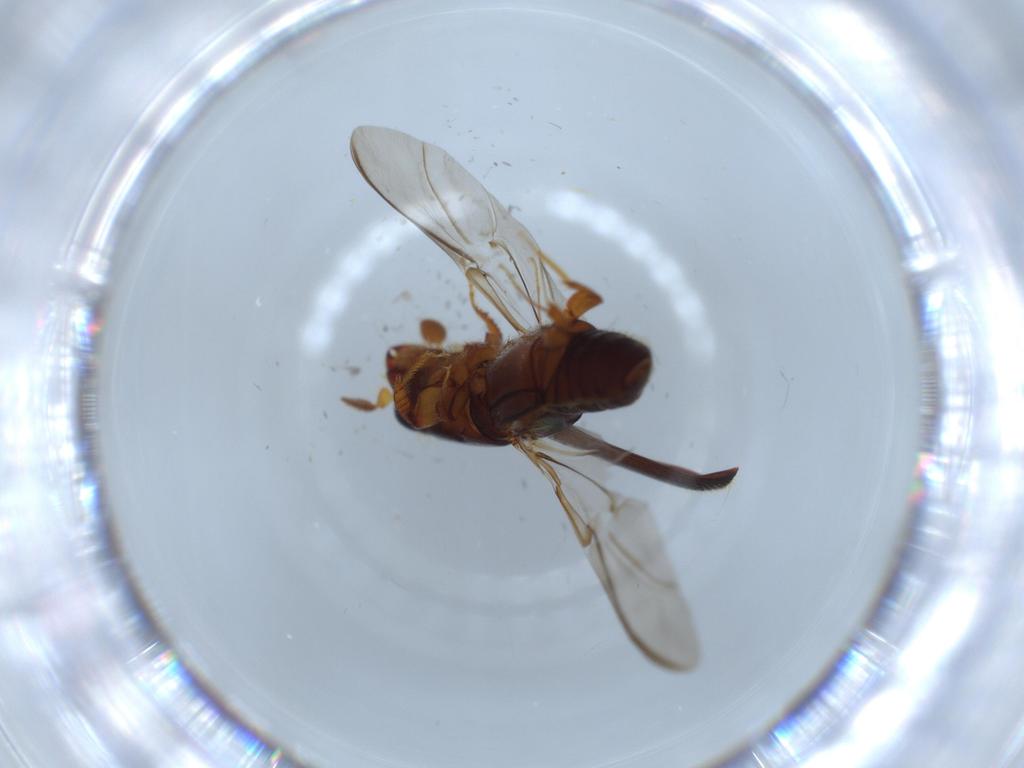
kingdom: Animalia
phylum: Arthropoda
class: Insecta
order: Coleoptera
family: Curculionidae
